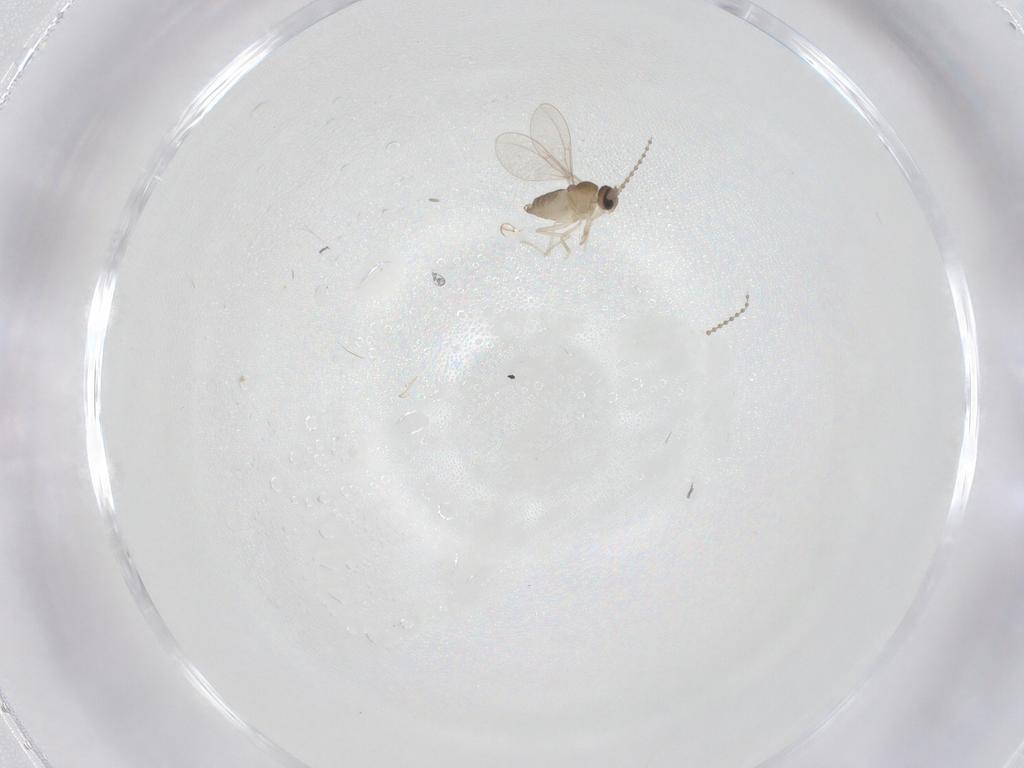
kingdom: Animalia
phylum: Arthropoda
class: Insecta
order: Diptera
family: Cecidomyiidae
